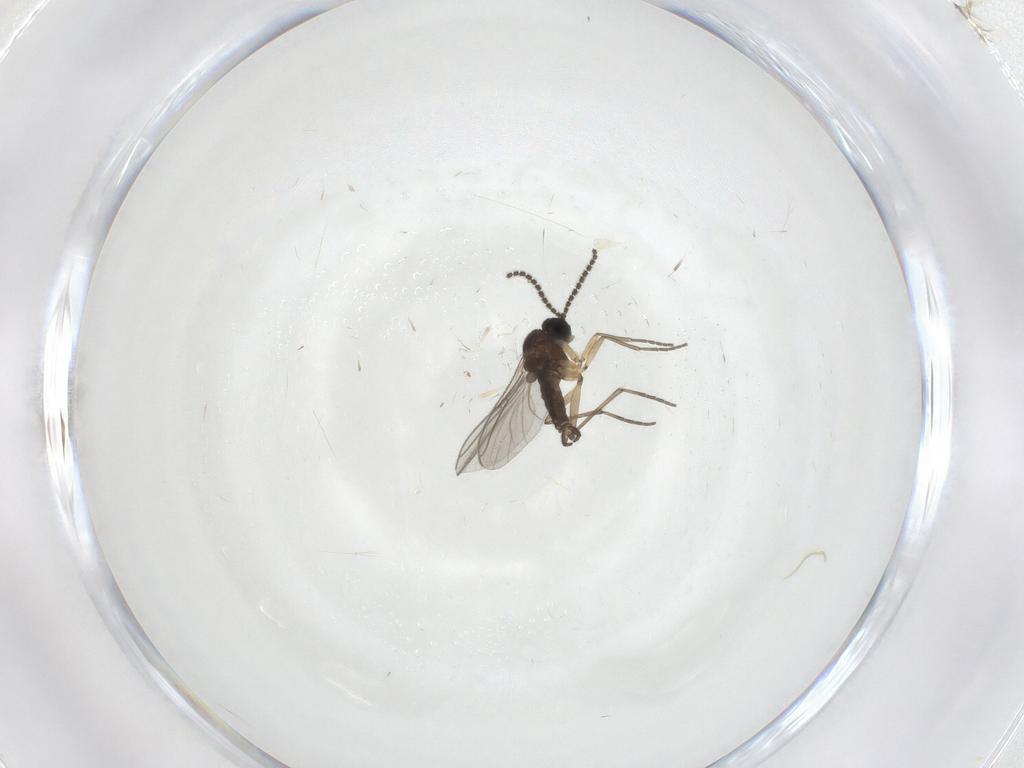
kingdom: Animalia
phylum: Arthropoda
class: Insecta
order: Diptera
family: Sciaridae
